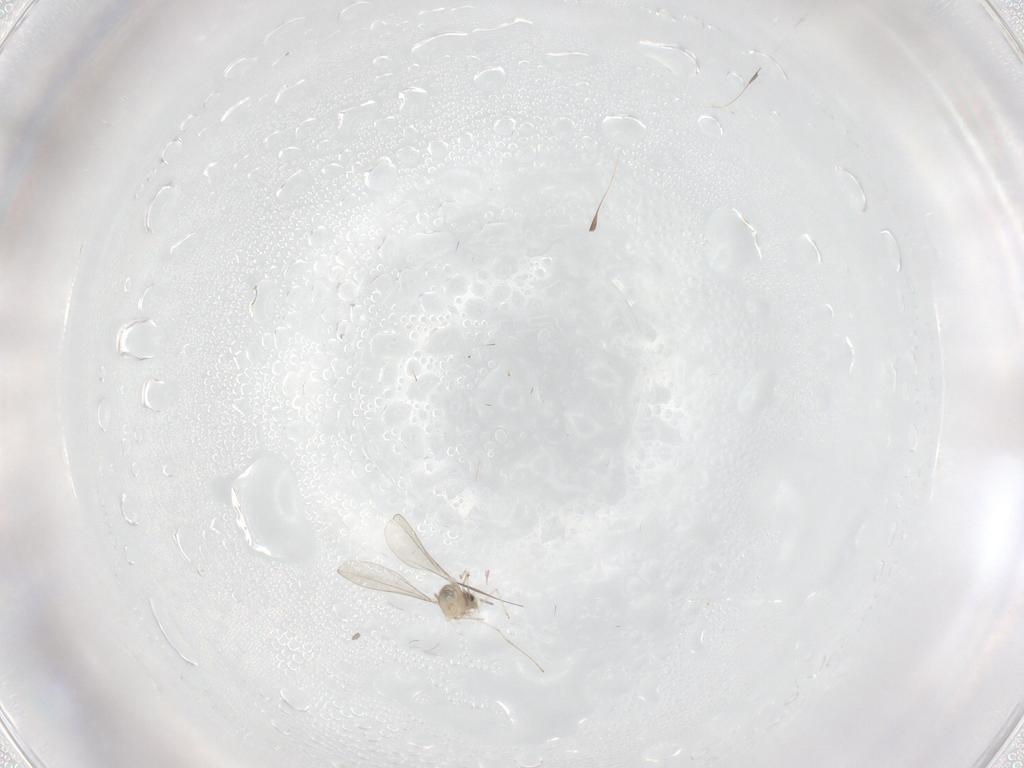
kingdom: Animalia
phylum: Arthropoda
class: Insecta
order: Diptera
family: Cecidomyiidae
